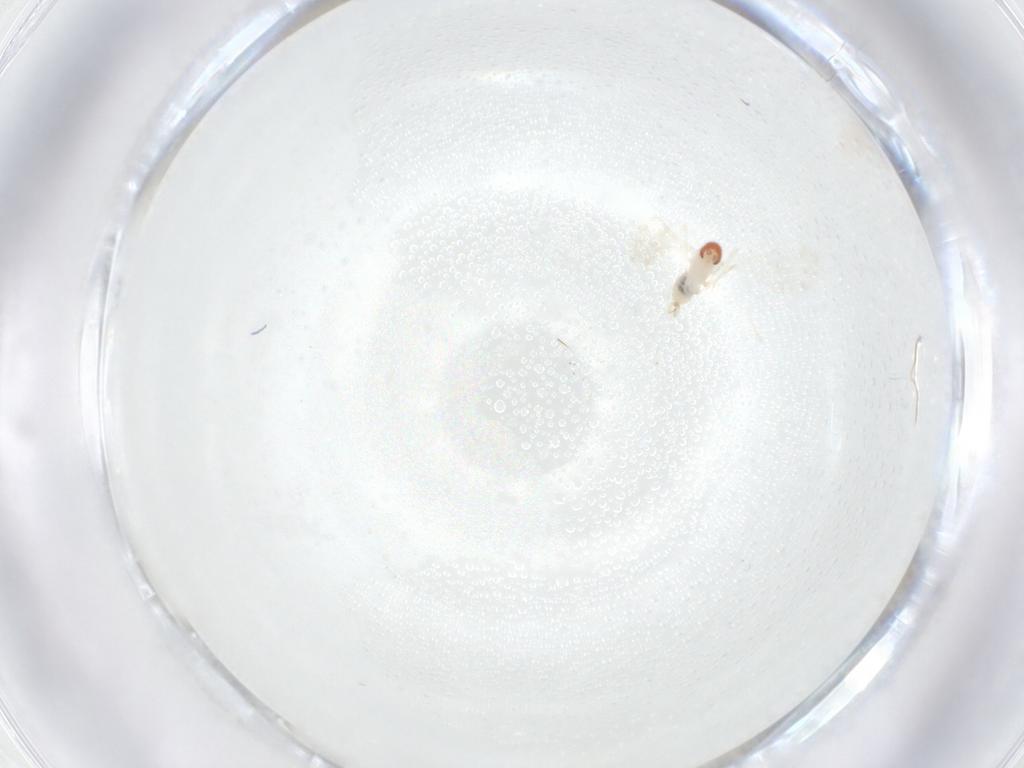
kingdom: Animalia
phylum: Arthropoda
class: Insecta
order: Diptera
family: Cecidomyiidae
